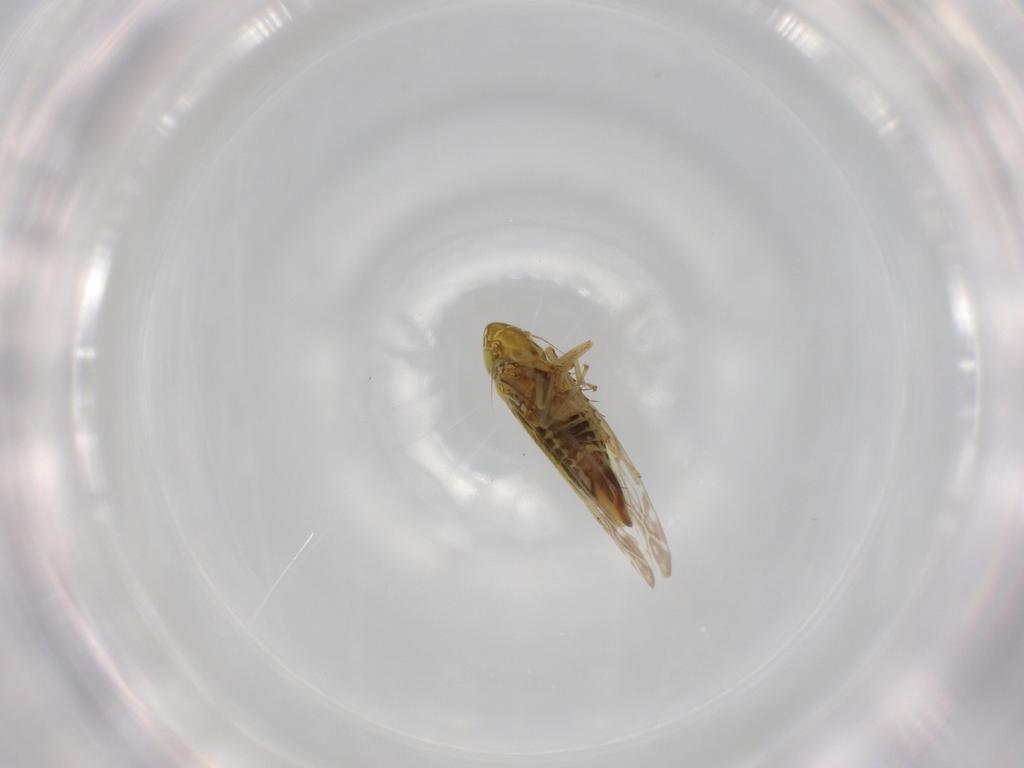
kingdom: Animalia
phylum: Arthropoda
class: Insecta
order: Hemiptera
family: Cicadellidae
